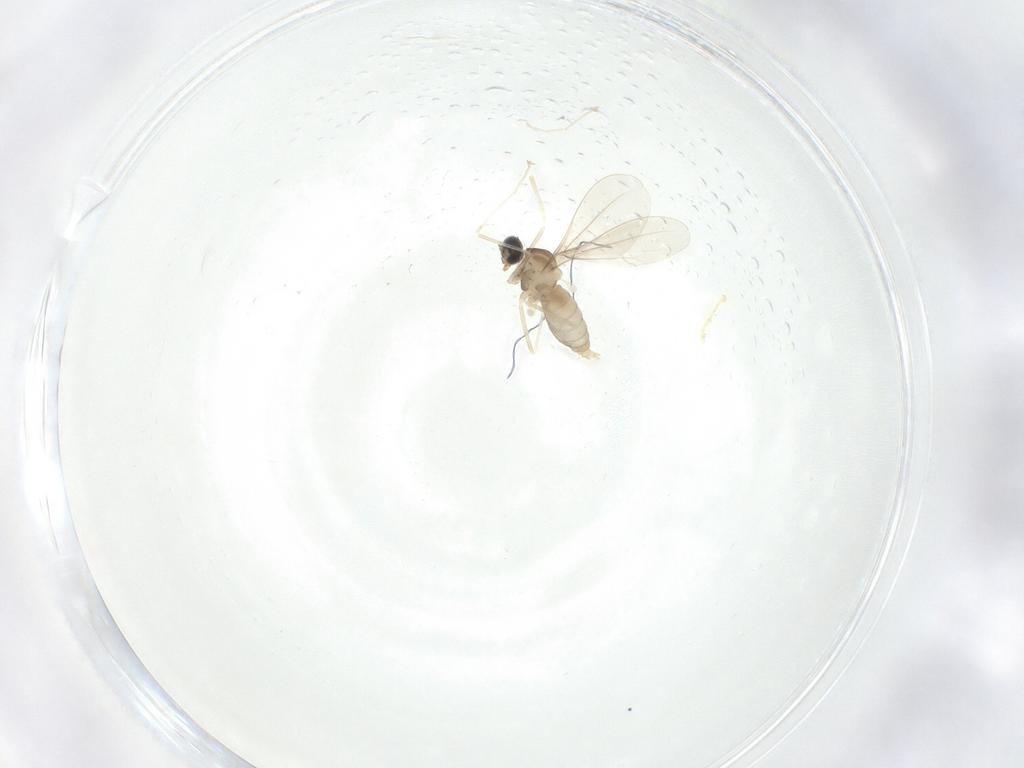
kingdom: Animalia
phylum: Arthropoda
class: Insecta
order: Diptera
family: Cecidomyiidae
